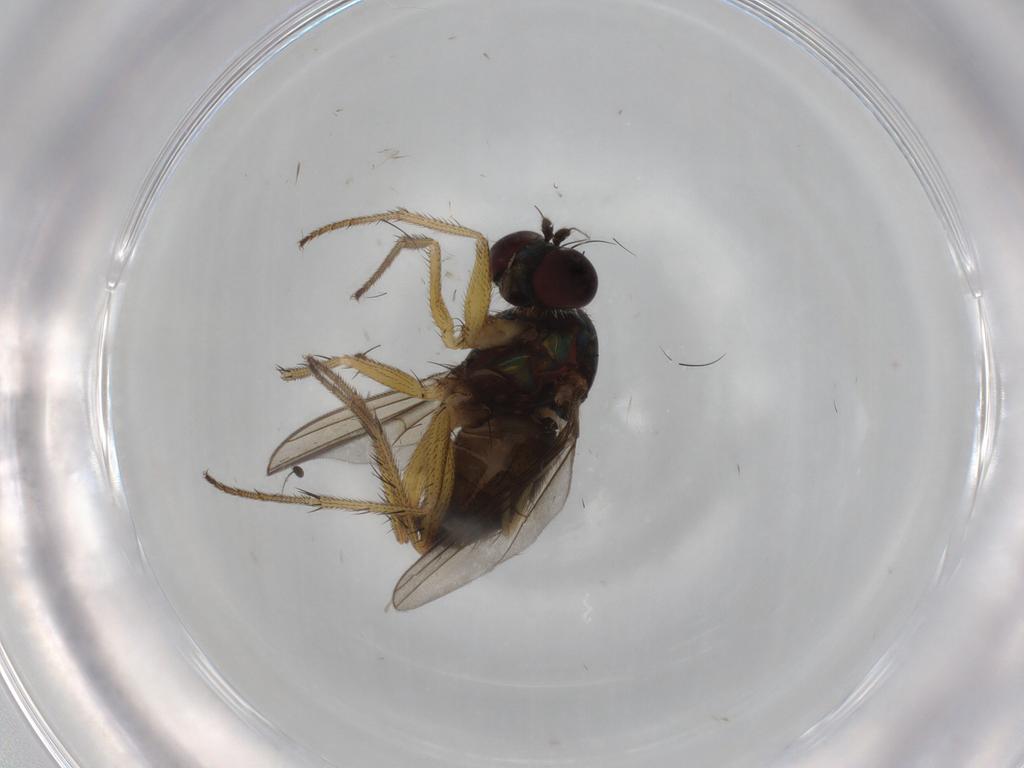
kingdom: Animalia
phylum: Arthropoda
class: Insecta
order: Diptera
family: Dolichopodidae
